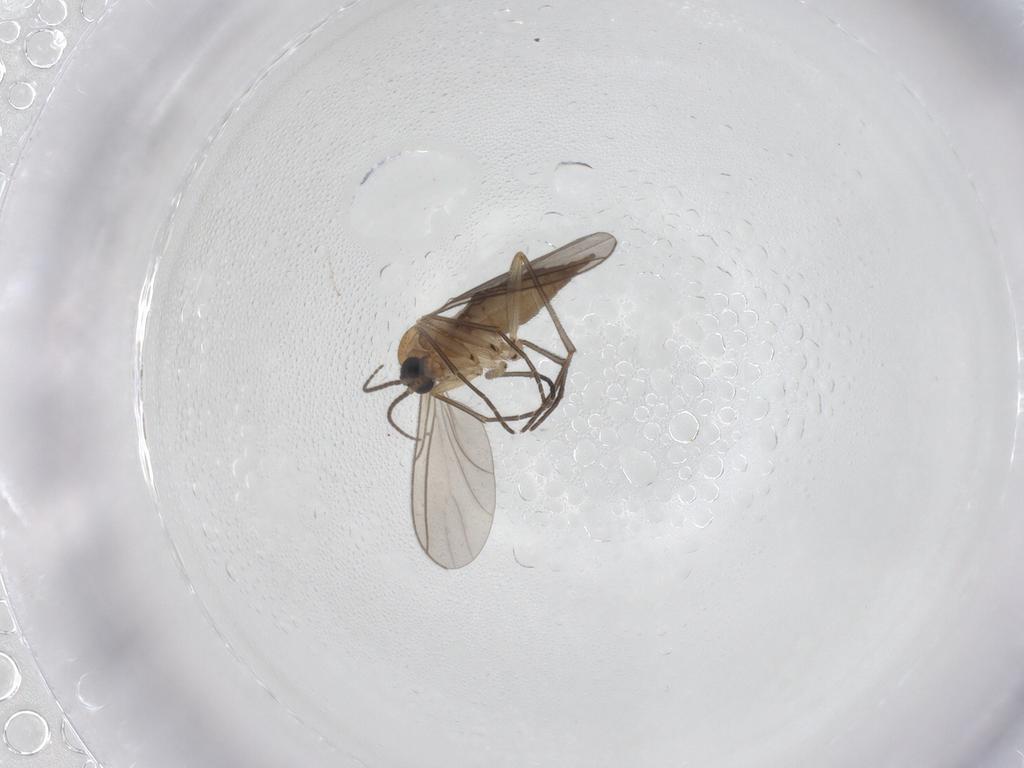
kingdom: Animalia
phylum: Arthropoda
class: Insecta
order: Diptera
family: Sciaridae
